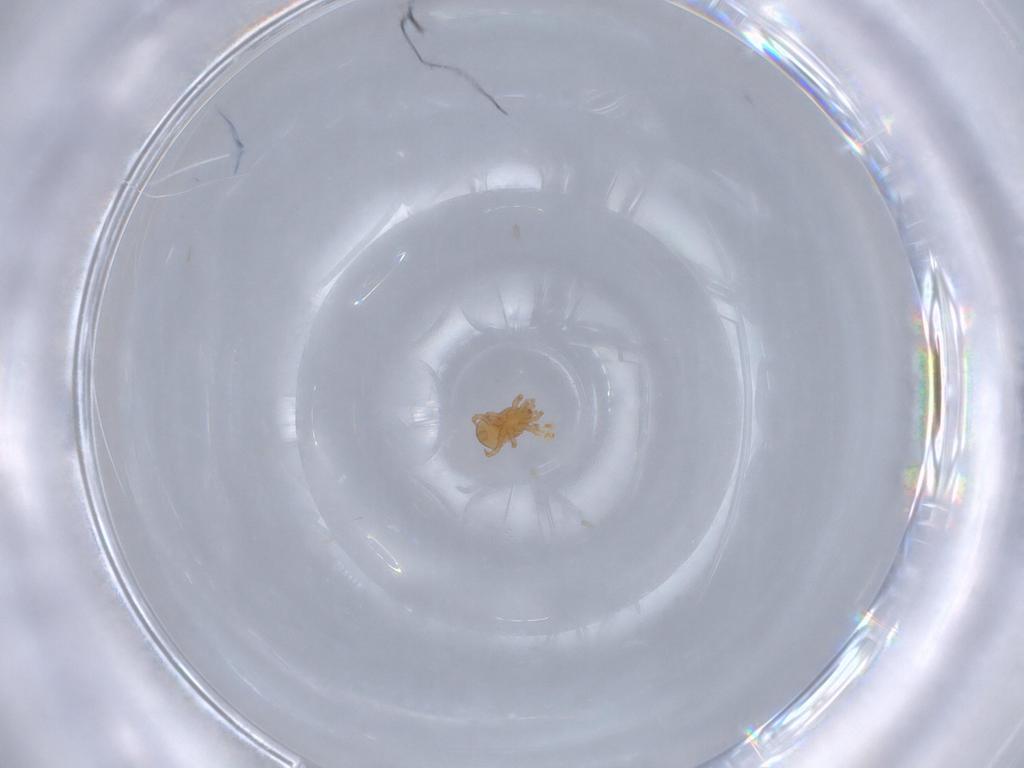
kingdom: Animalia
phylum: Arthropoda
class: Arachnida
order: Mesostigmata
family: Halolaelapidae
